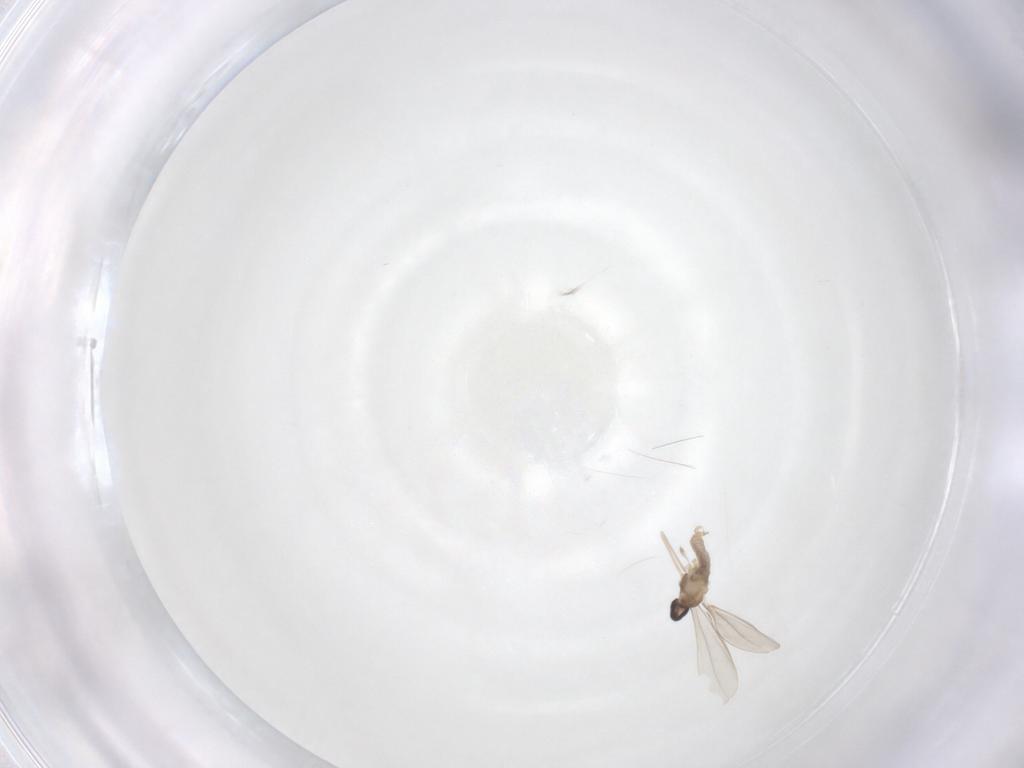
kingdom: Animalia
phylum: Arthropoda
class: Insecta
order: Diptera
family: Cecidomyiidae
